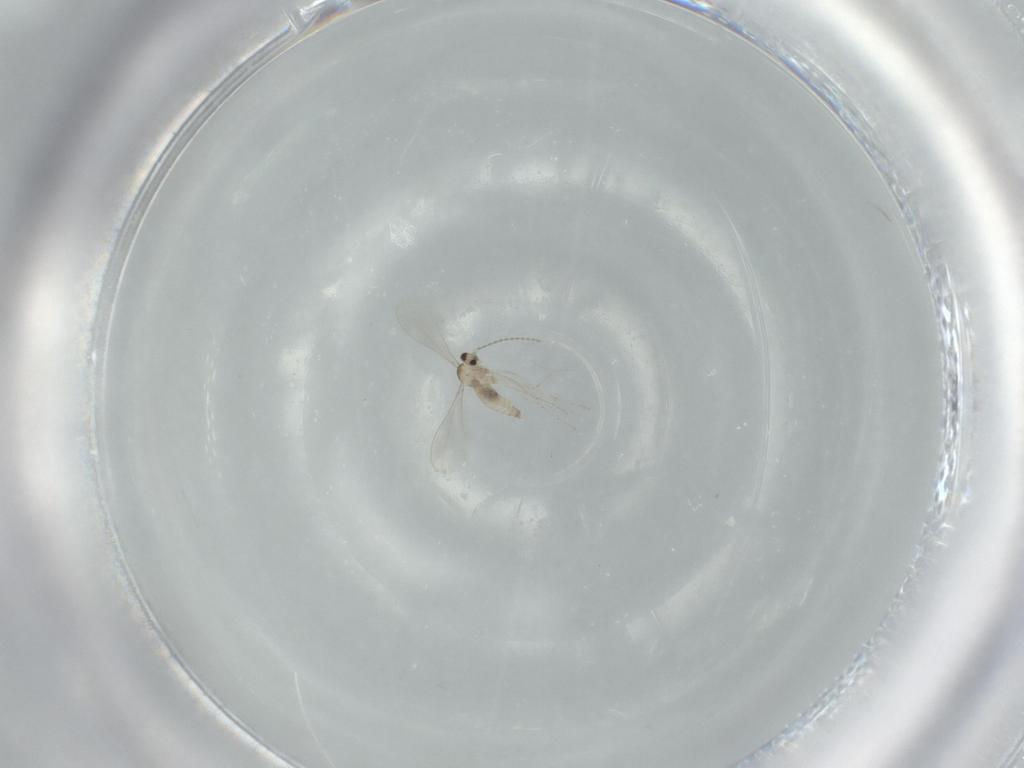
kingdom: Animalia
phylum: Arthropoda
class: Insecta
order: Diptera
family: Cecidomyiidae
